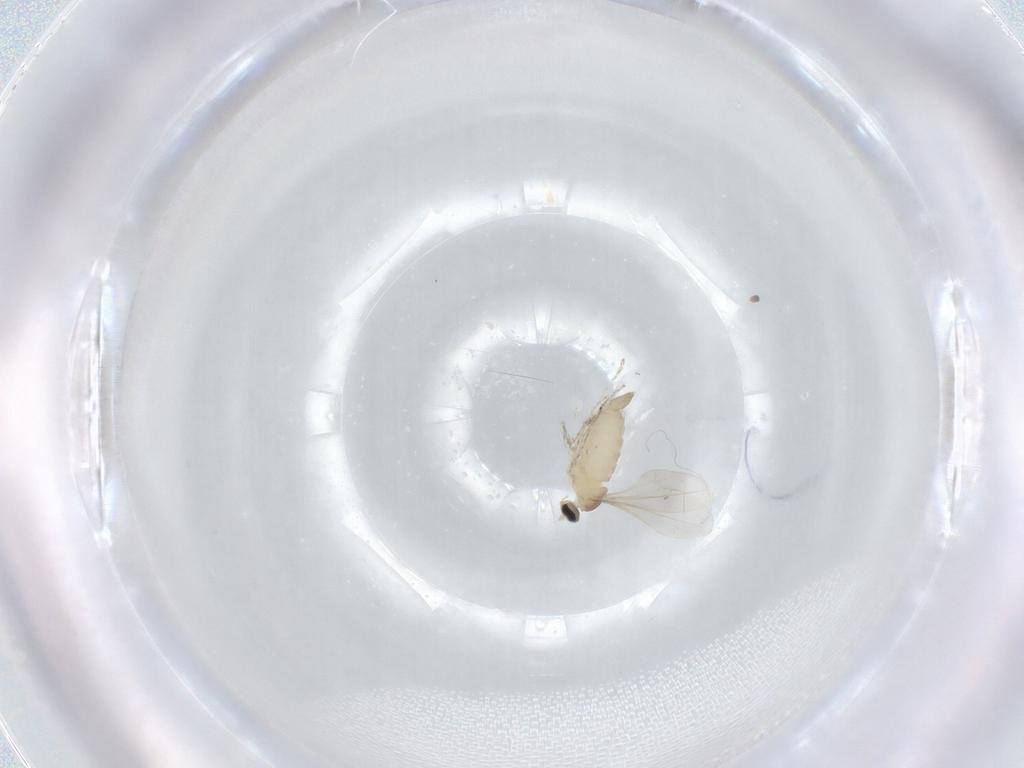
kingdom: Animalia
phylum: Arthropoda
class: Insecta
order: Diptera
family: Cecidomyiidae
